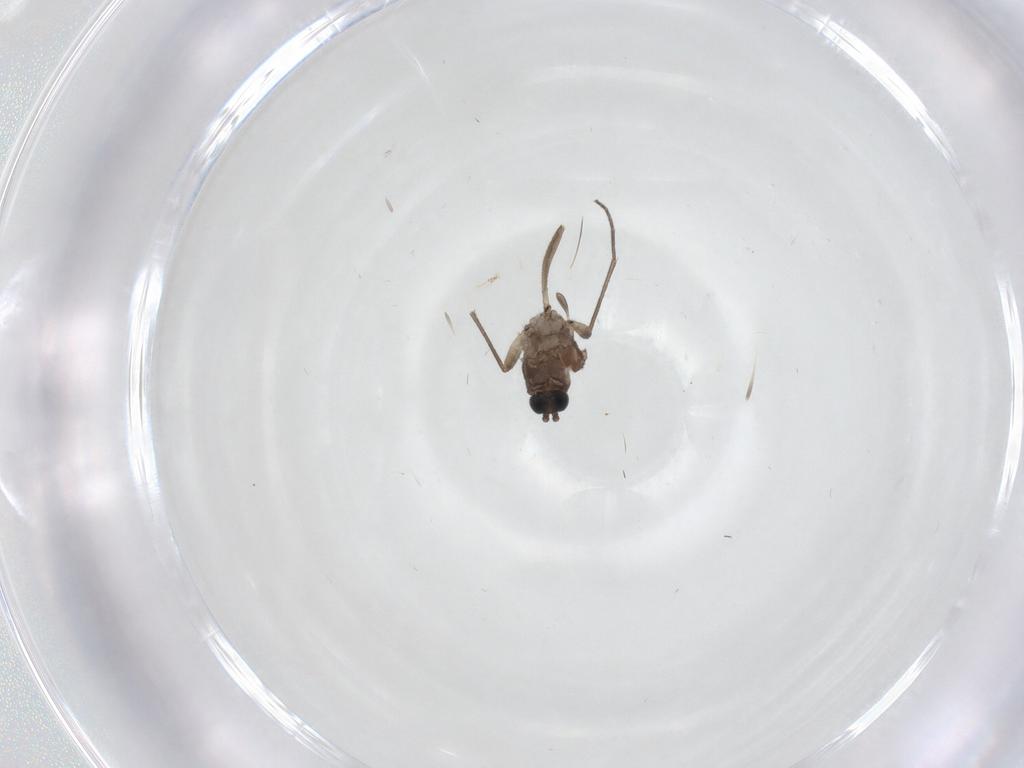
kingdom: Animalia
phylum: Arthropoda
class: Insecta
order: Diptera
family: Sciaridae
